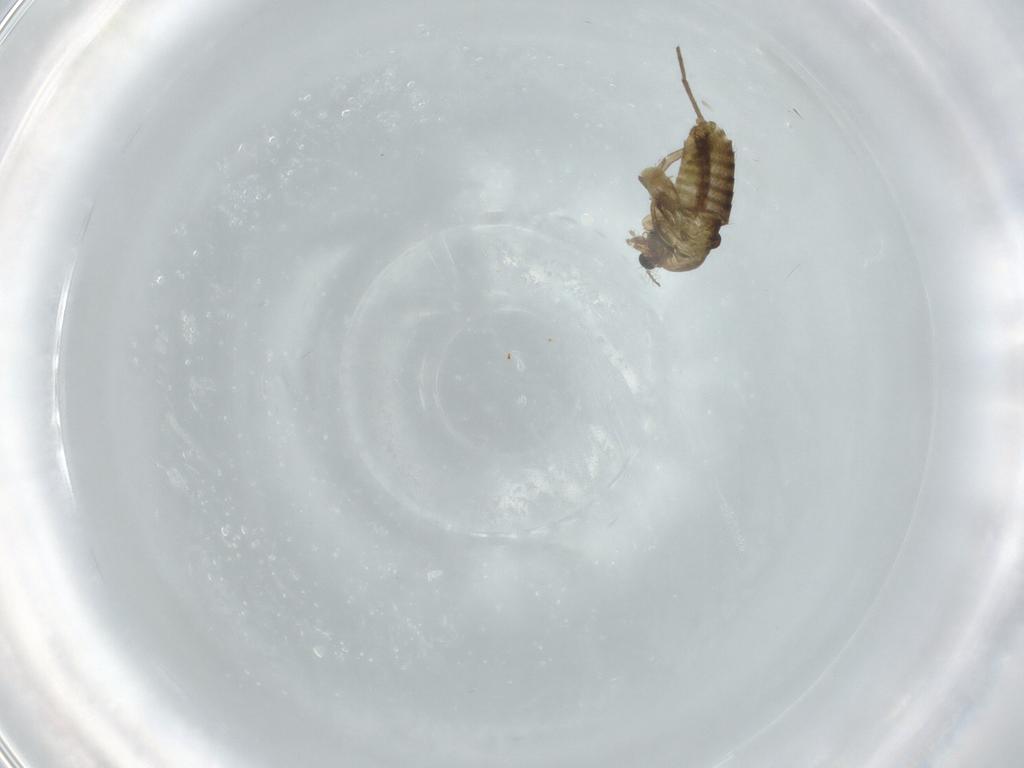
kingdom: Animalia
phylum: Arthropoda
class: Insecta
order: Diptera
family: Chironomidae
